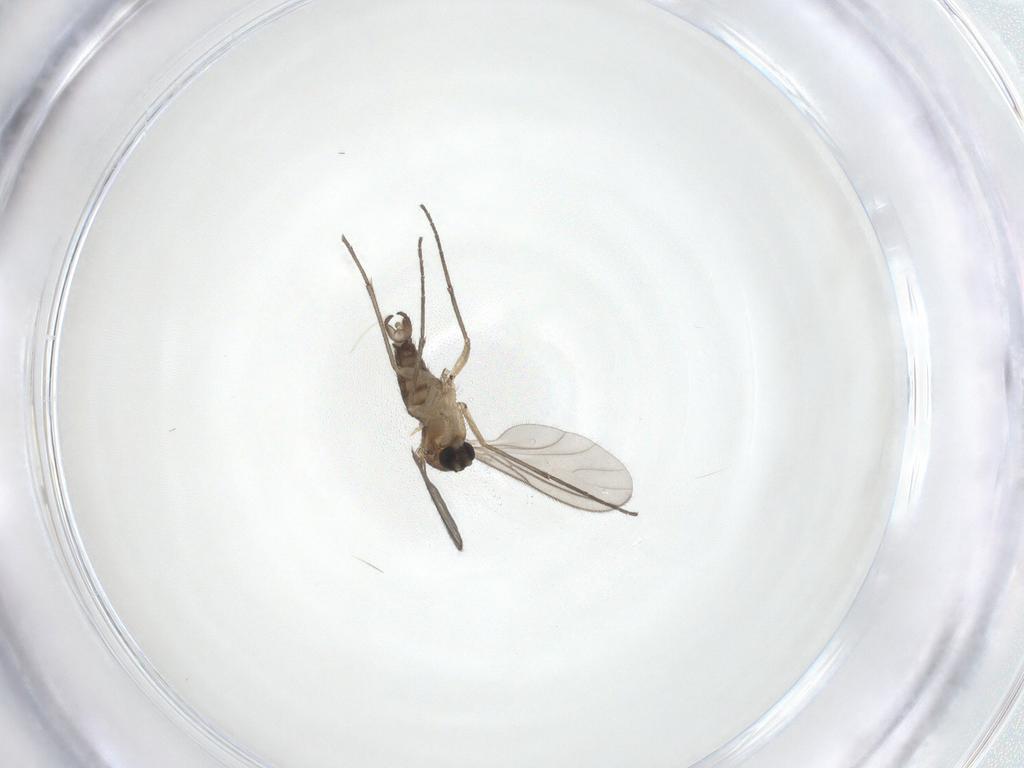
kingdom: Animalia
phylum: Arthropoda
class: Insecta
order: Diptera
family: Sciaridae
